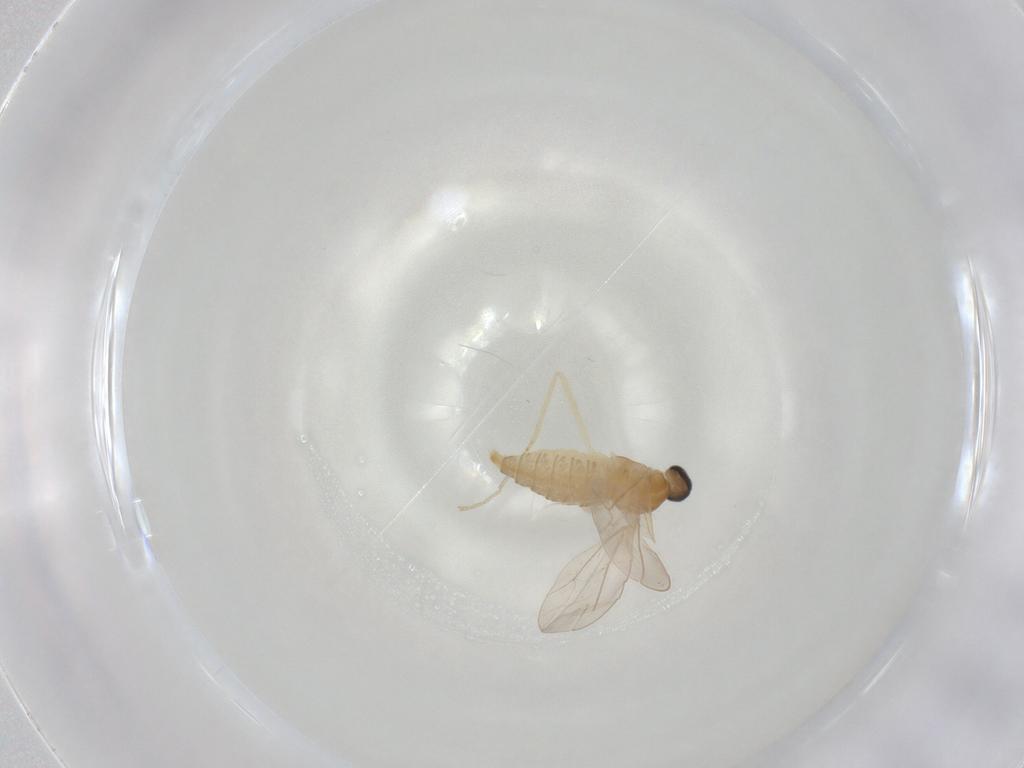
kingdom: Animalia
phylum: Arthropoda
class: Insecta
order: Diptera
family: Cecidomyiidae
